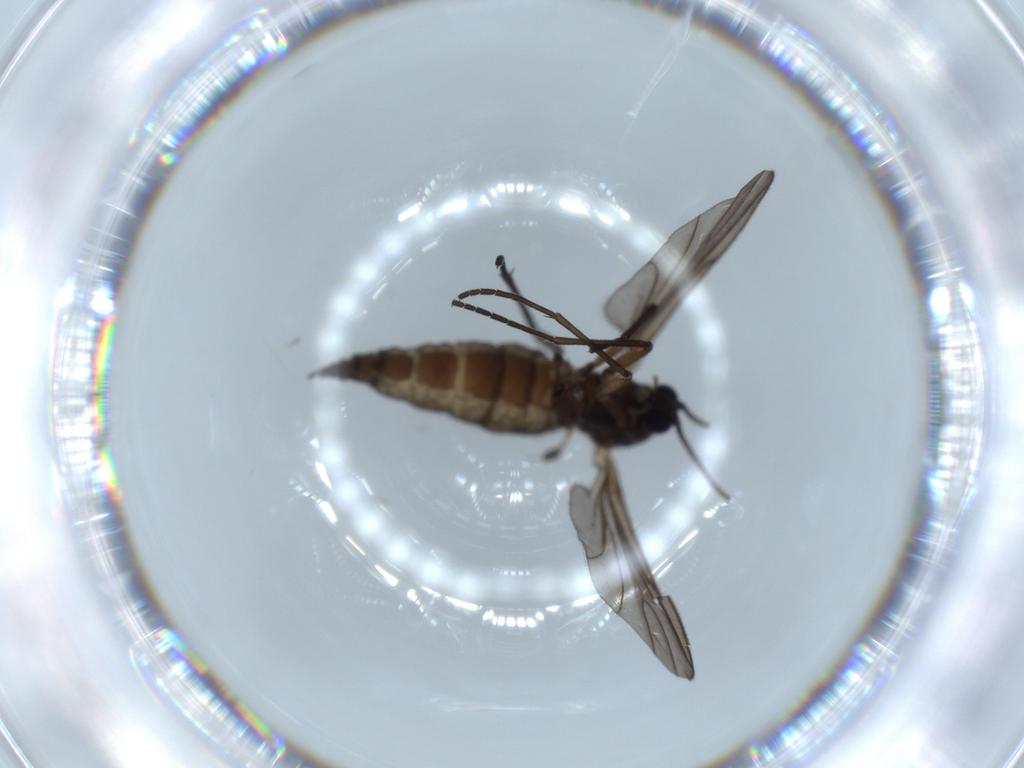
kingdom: Animalia
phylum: Arthropoda
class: Insecta
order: Diptera
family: Sciaridae
